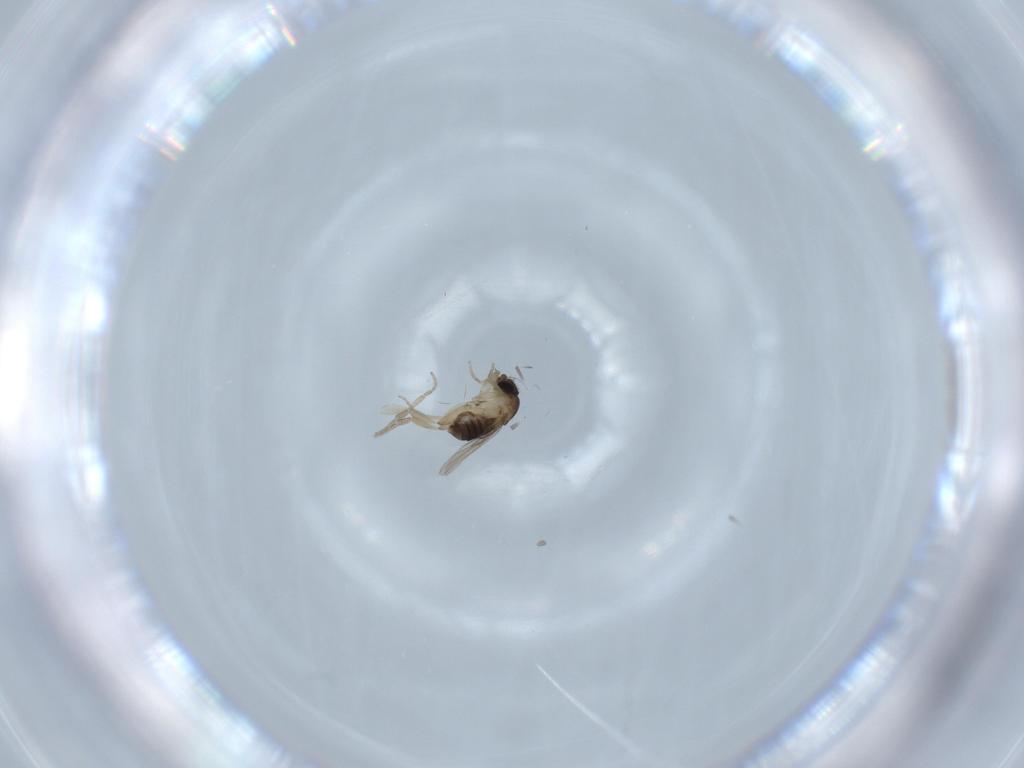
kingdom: Animalia
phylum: Arthropoda
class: Insecta
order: Diptera
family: Phoridae
